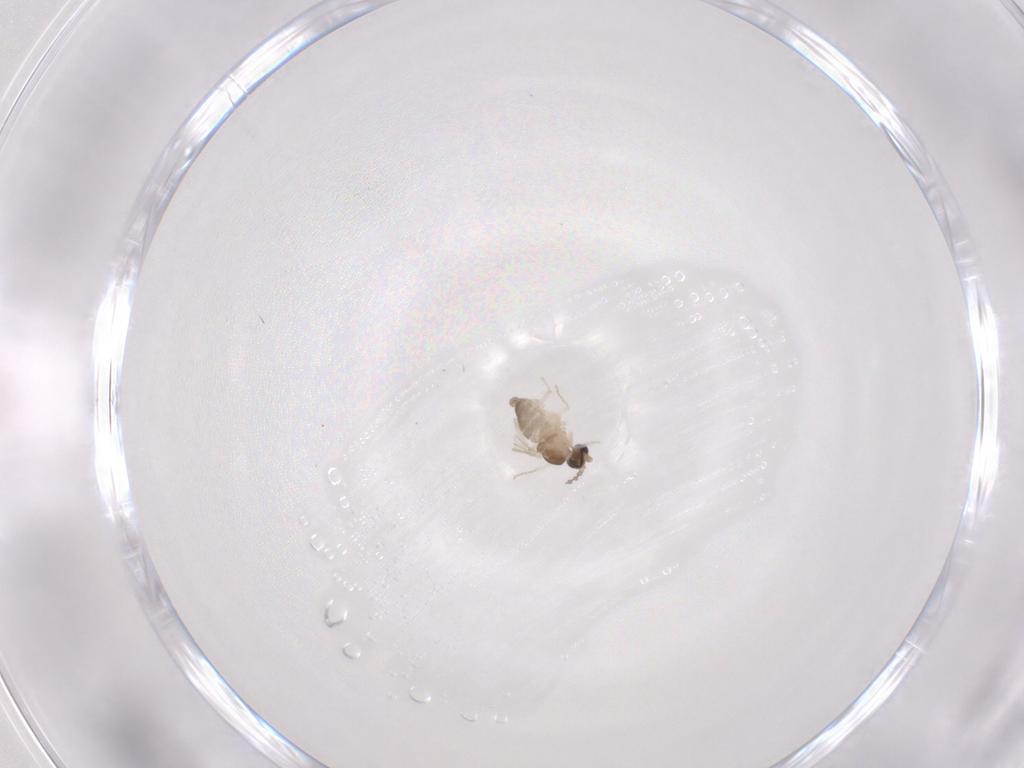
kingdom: Animalia
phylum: Arthropoda
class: Insecta
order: Diptera
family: Cecidomyiidae
